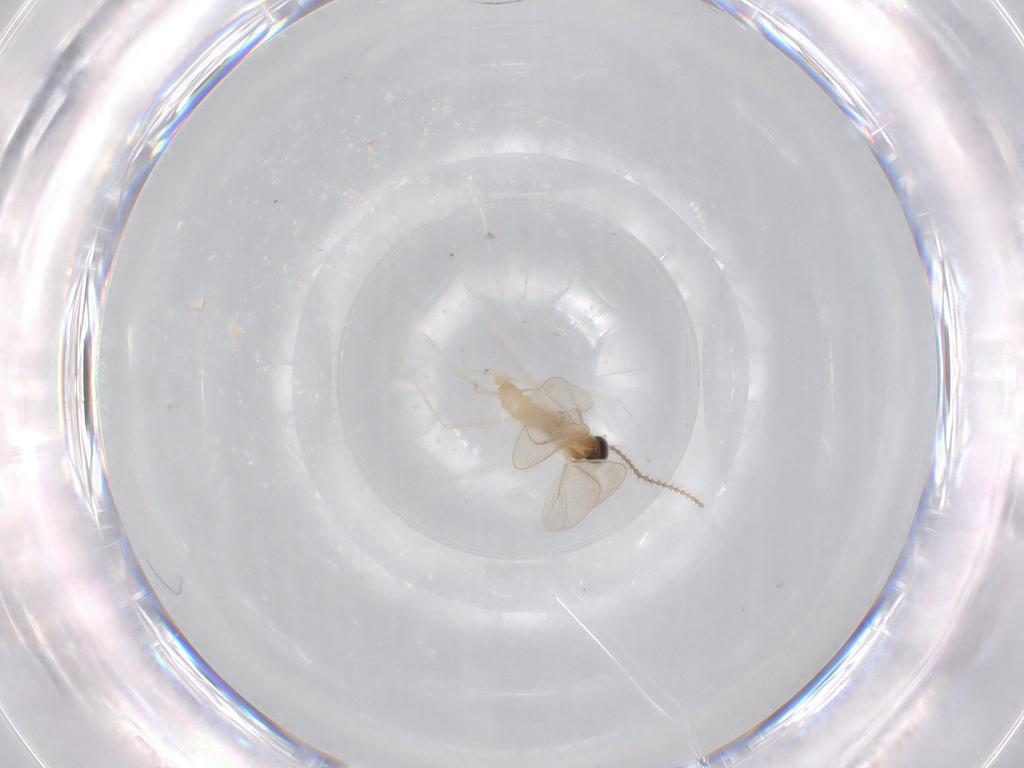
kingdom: Animalia
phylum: Arthropoda
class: Insecta
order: Diptera
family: Cecidomyiidae
